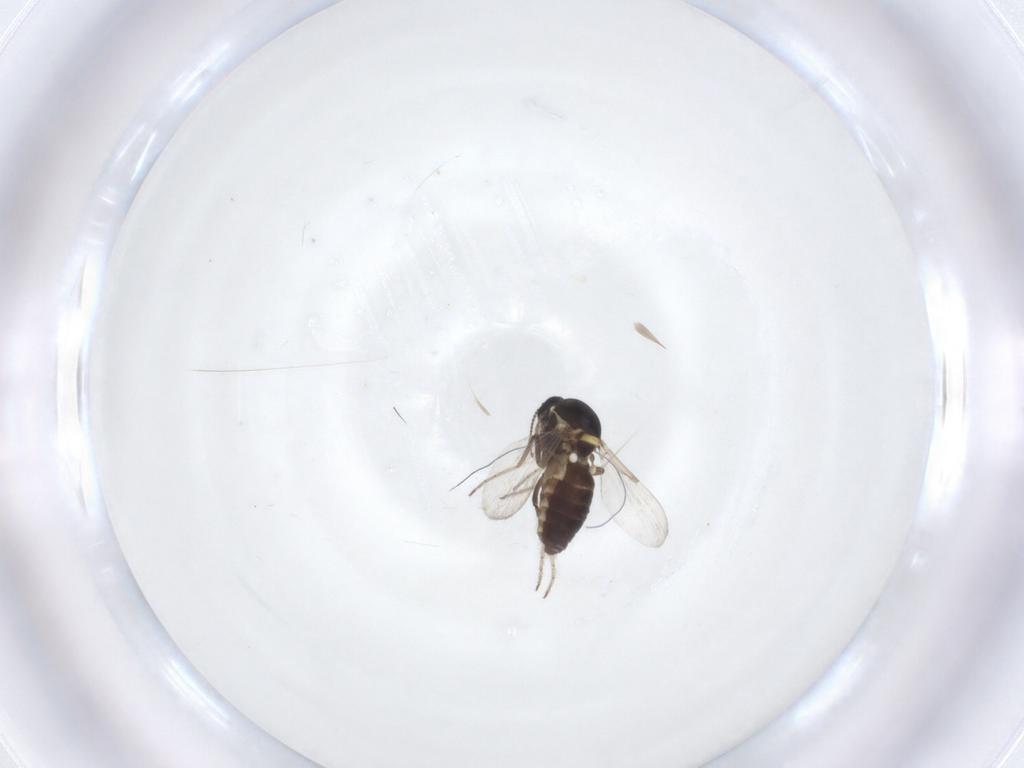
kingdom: Animalia
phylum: Arthropoda
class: Insecta
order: Diptera
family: Ceratopogonidae
